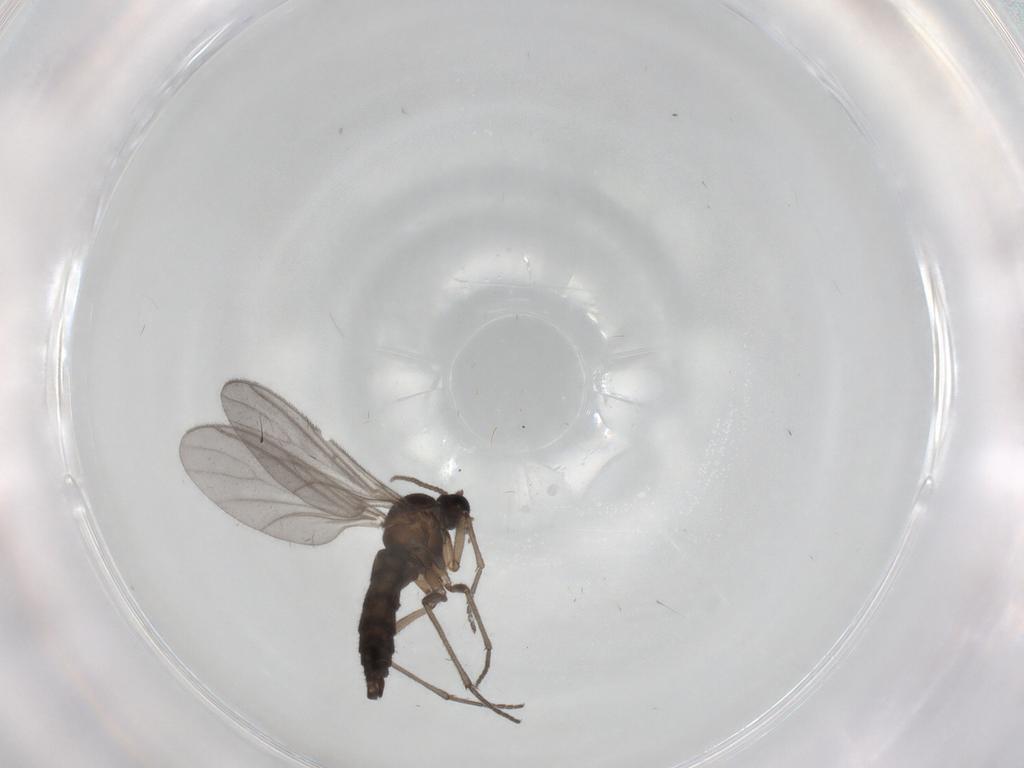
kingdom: Animalia
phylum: Arthropoda
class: Insecta
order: Diptera
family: Sciaridae
